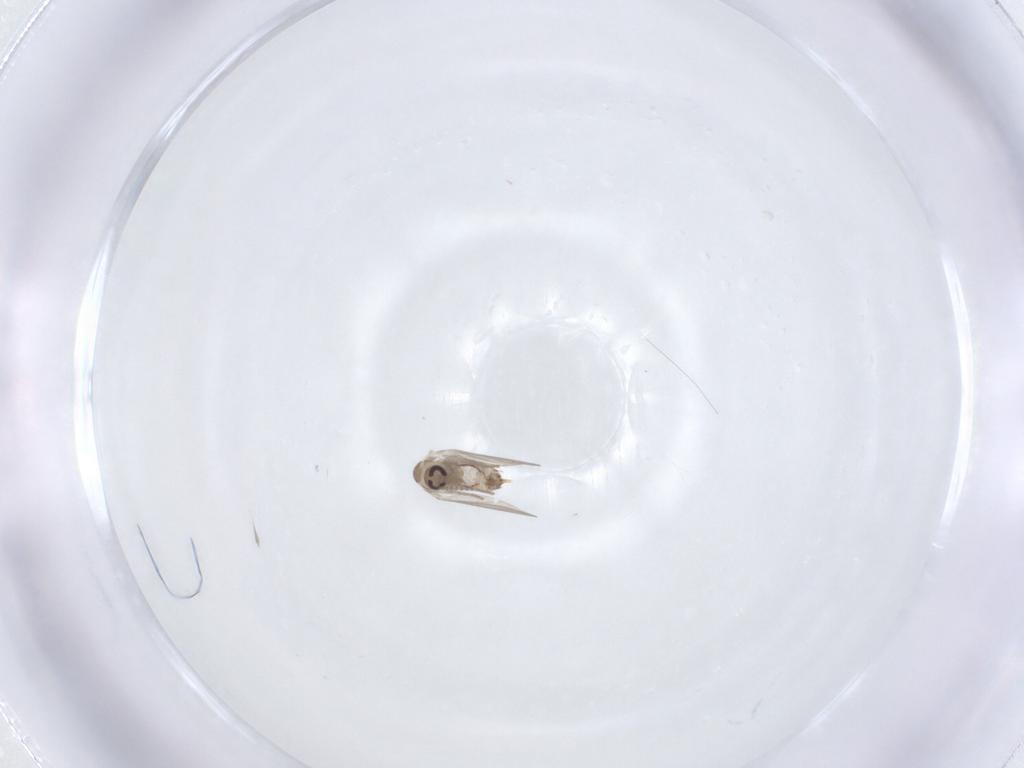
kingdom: Animalia
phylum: Arthropoda
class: Insecta
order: Diptera
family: Psychodidae
